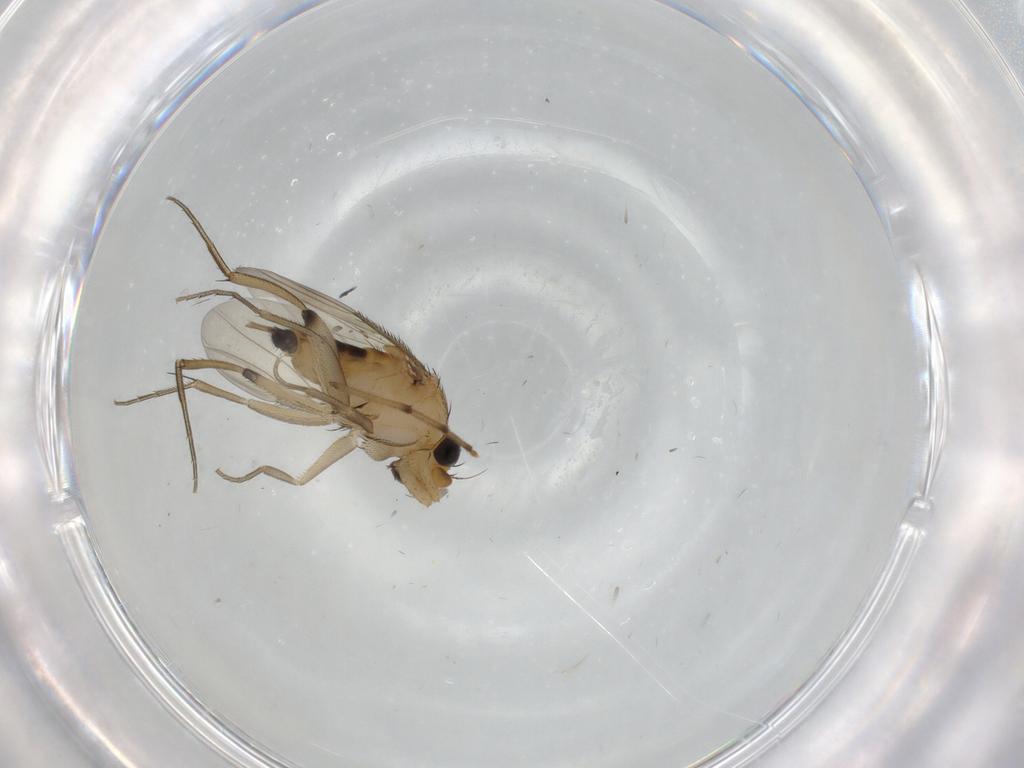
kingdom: Animalia
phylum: Arthropoda
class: Insecta
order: Diptera
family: Phoridae
